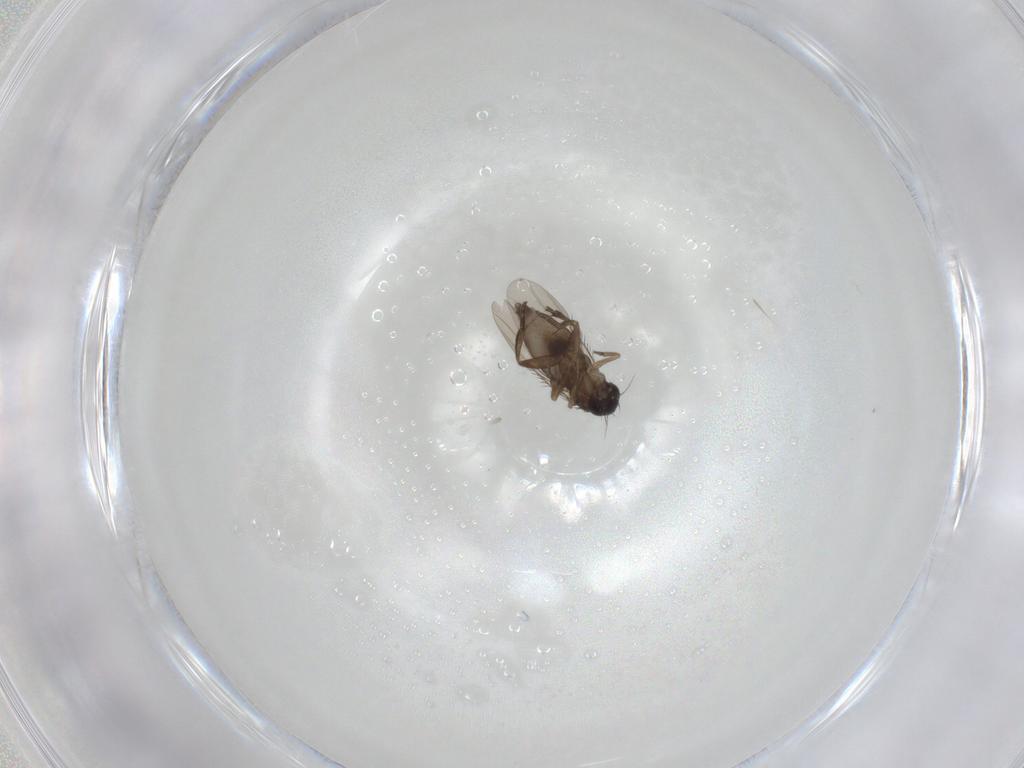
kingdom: Animalia
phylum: Arthropoda
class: Insecta
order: Diptera
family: Phoridae
